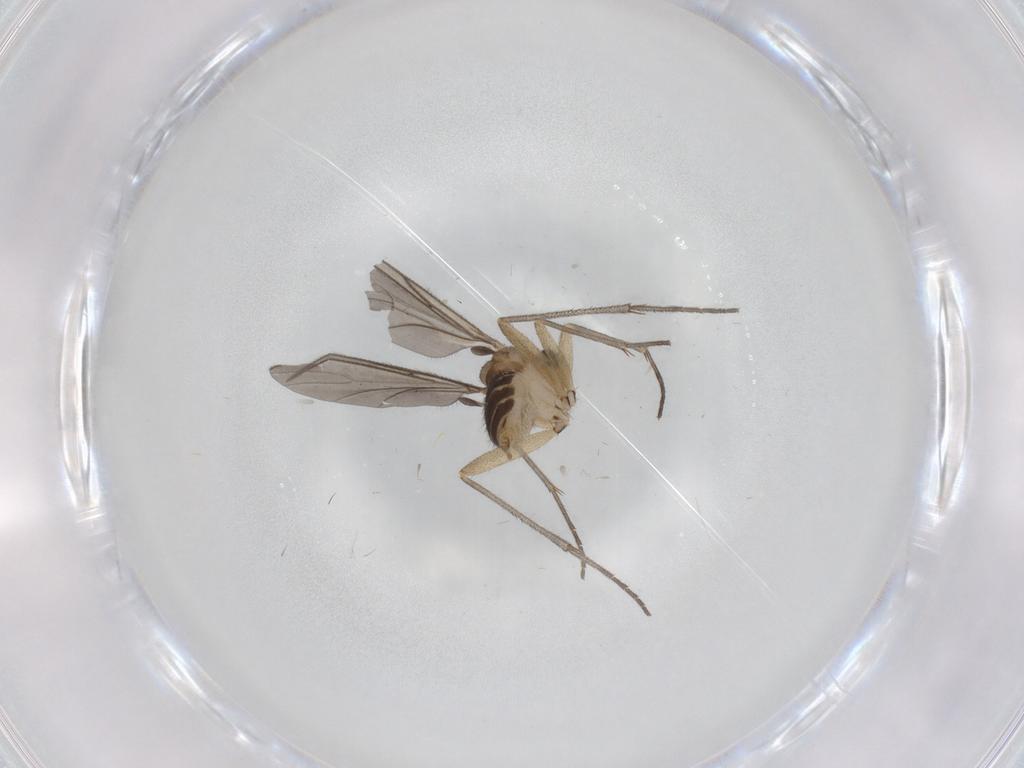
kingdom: Animalia
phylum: Arthropoda
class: Insecta
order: Diptera
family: Sciaridae
